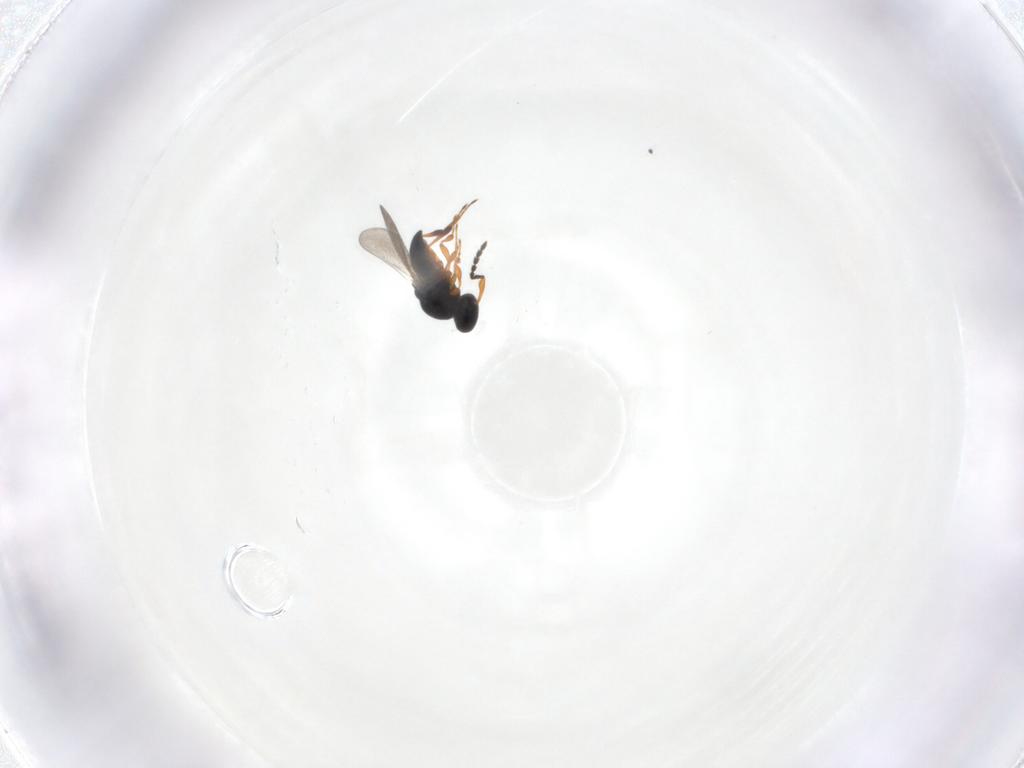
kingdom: Animalia
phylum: Arthropoda
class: Insecta
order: Hymenoptera
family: Platygastridae
